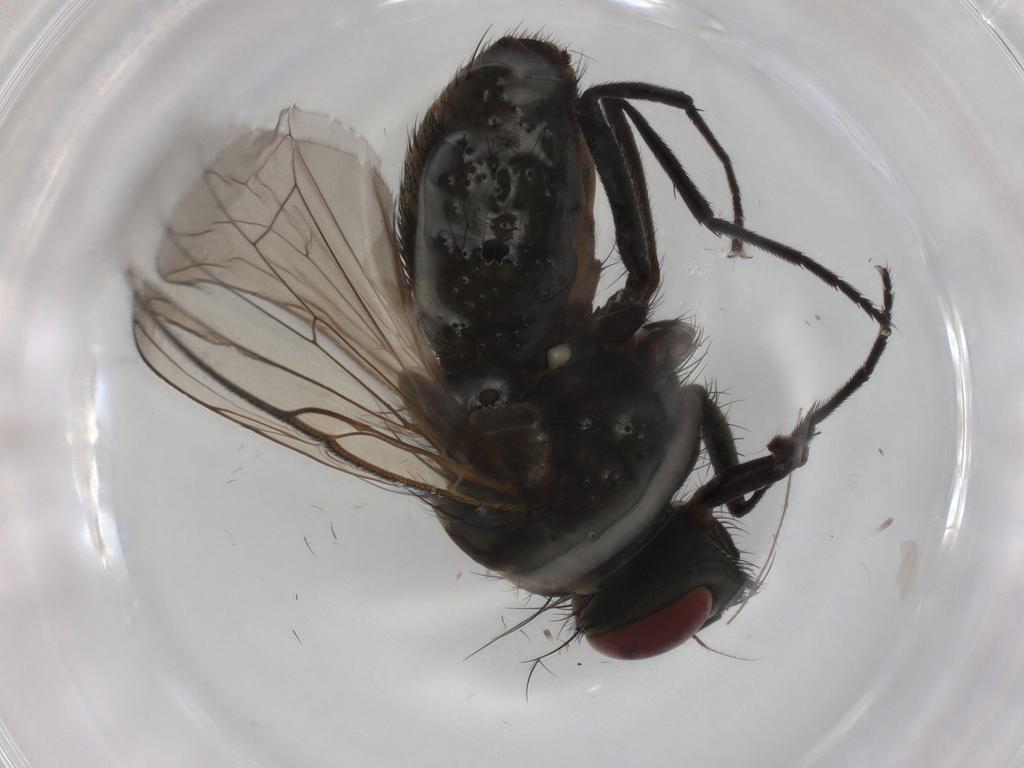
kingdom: Animalia
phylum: Arthropoda
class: Insecta
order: Diptera
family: Muscidae
